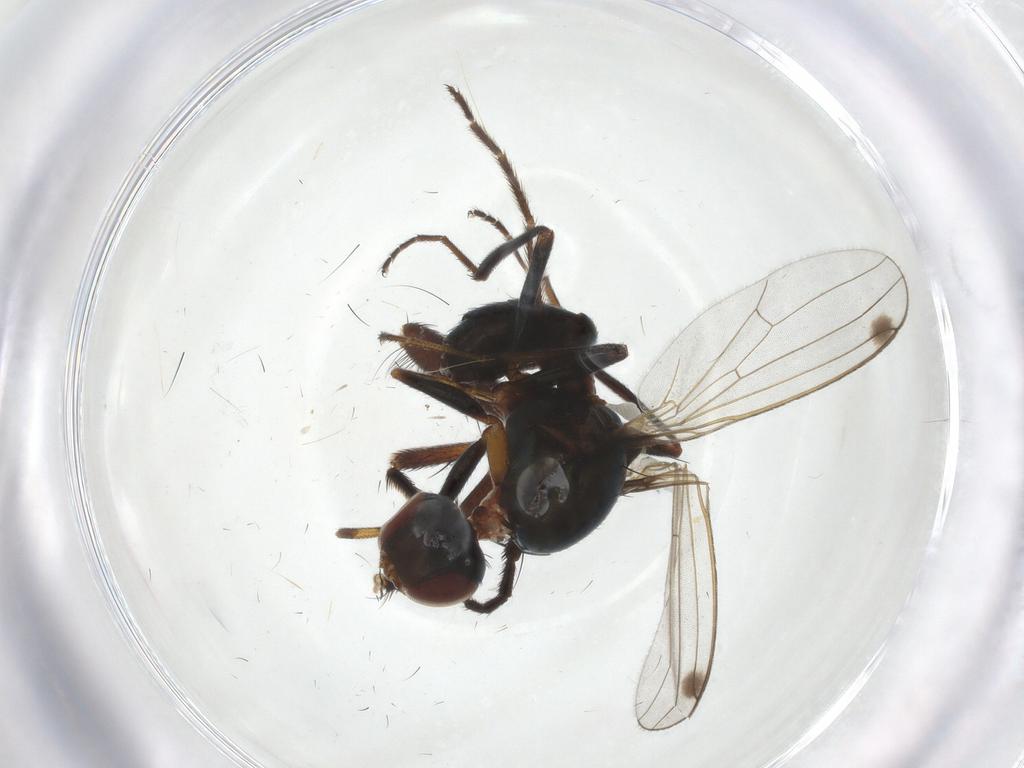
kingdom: Animalia
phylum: Arthropoda
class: Insecta
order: Diptera
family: Sepsidae
